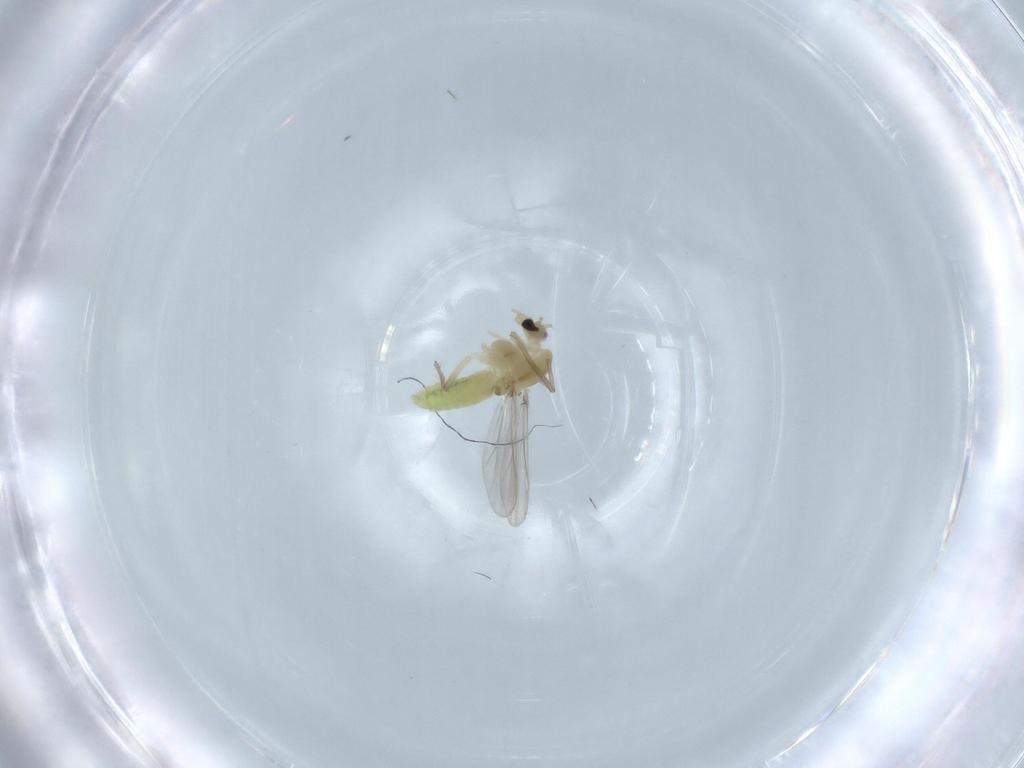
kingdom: Animalia
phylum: Arthropoda
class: Insecta
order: Diptera
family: Chironomidae
